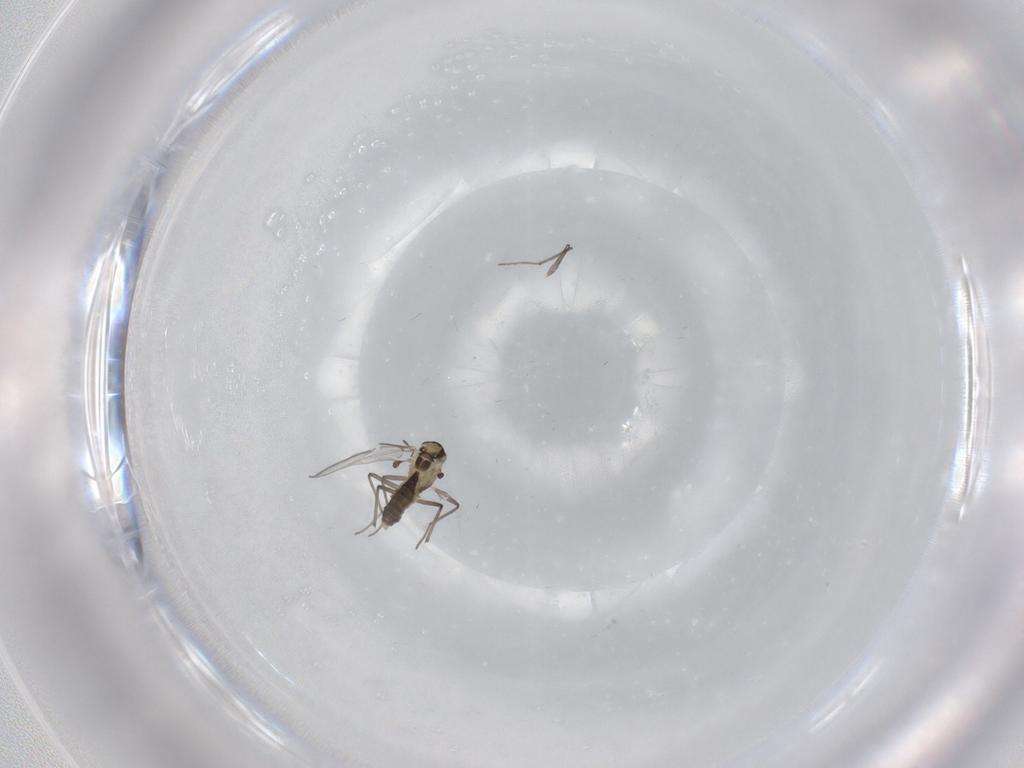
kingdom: Animalia
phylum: Arthropoda
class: Insecta
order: Diptera
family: Chironomidae
